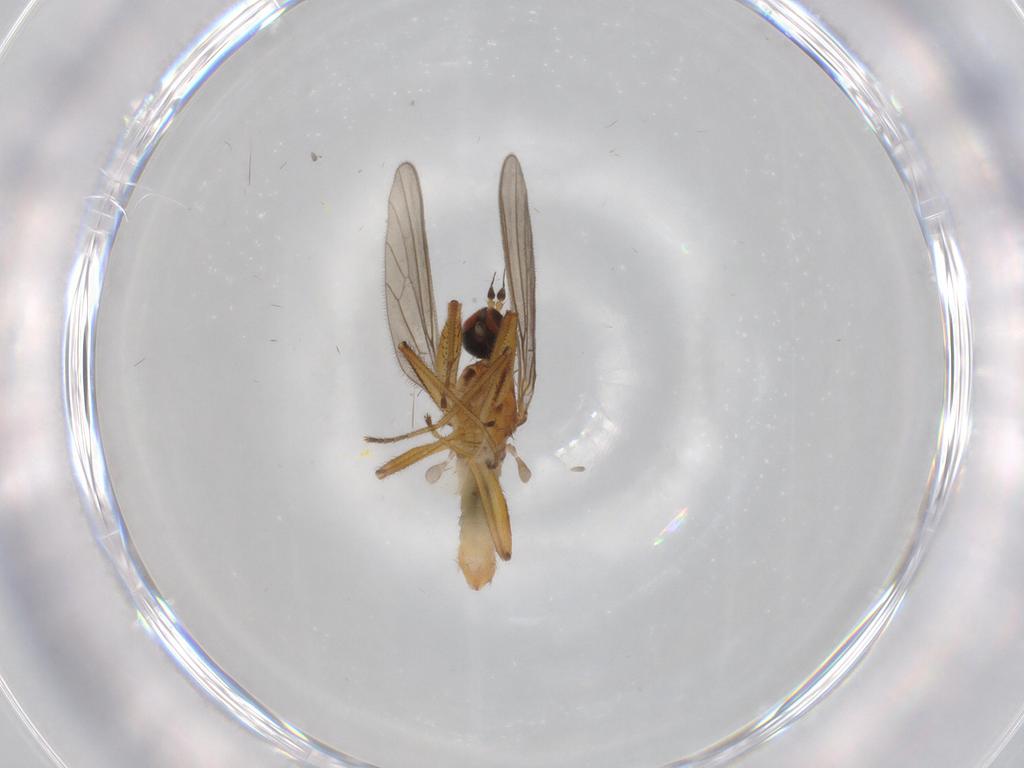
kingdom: Animalia
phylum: Arthropoda
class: Insecta
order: Diptera
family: Empididae
